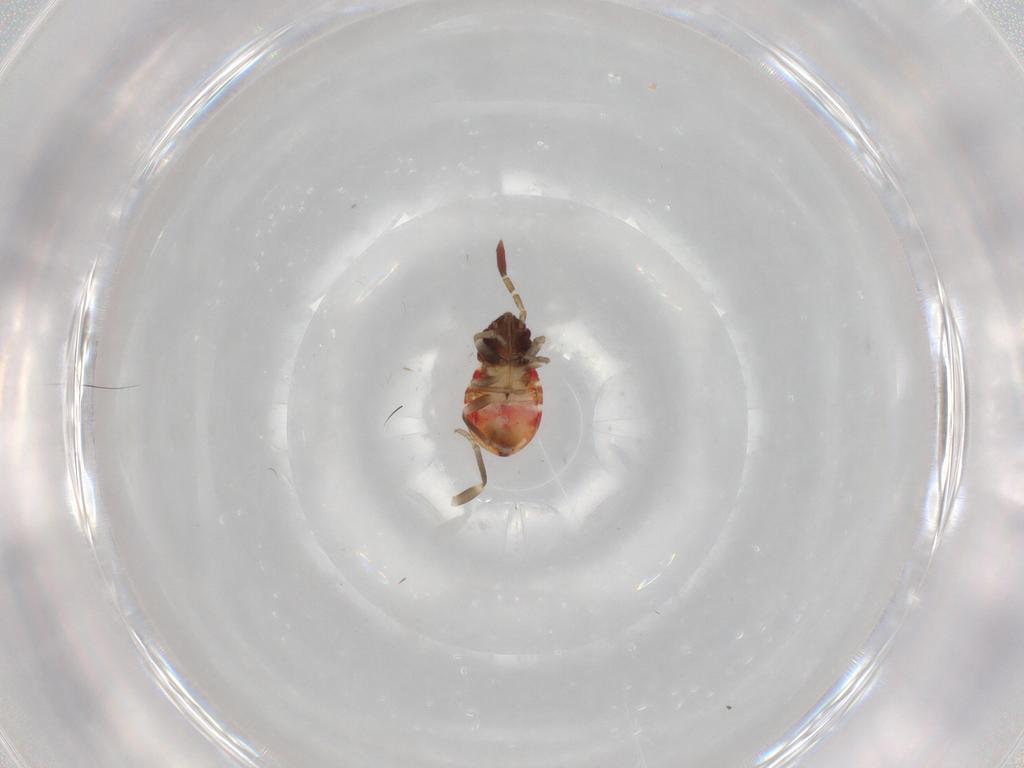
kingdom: Animalia
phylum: Arthropoda
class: Insecta
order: Hemiptera
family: Rhyparochromidae
